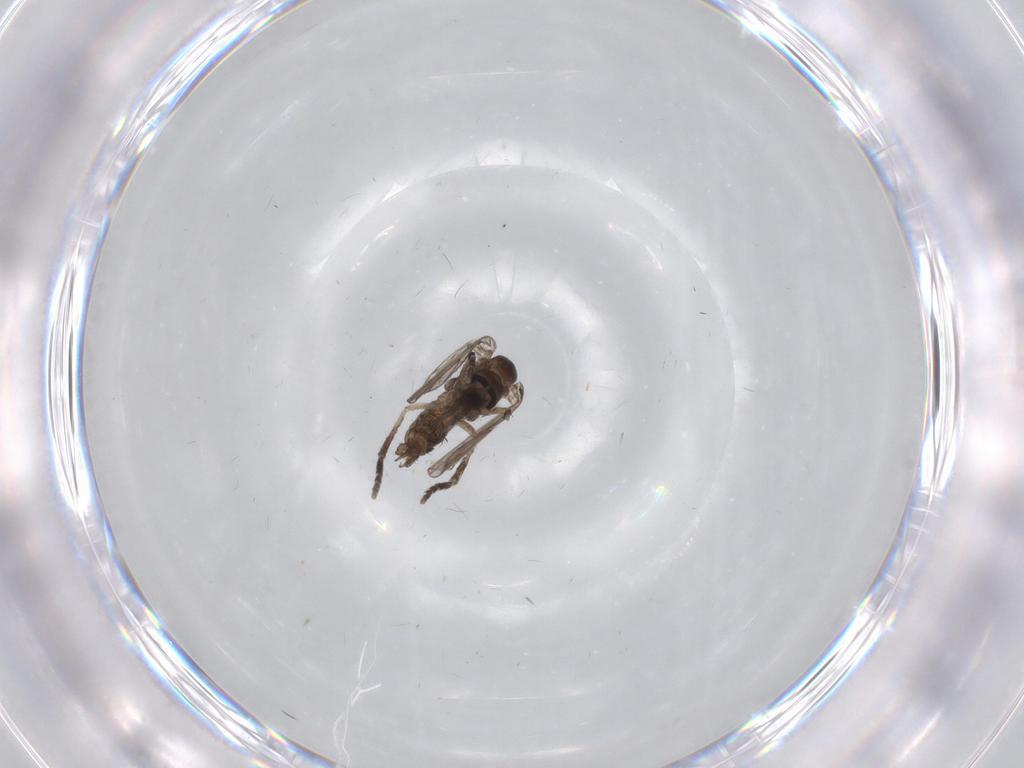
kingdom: Animalia
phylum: Arthropoda
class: Insecta
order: Diptera
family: Psychodidae
